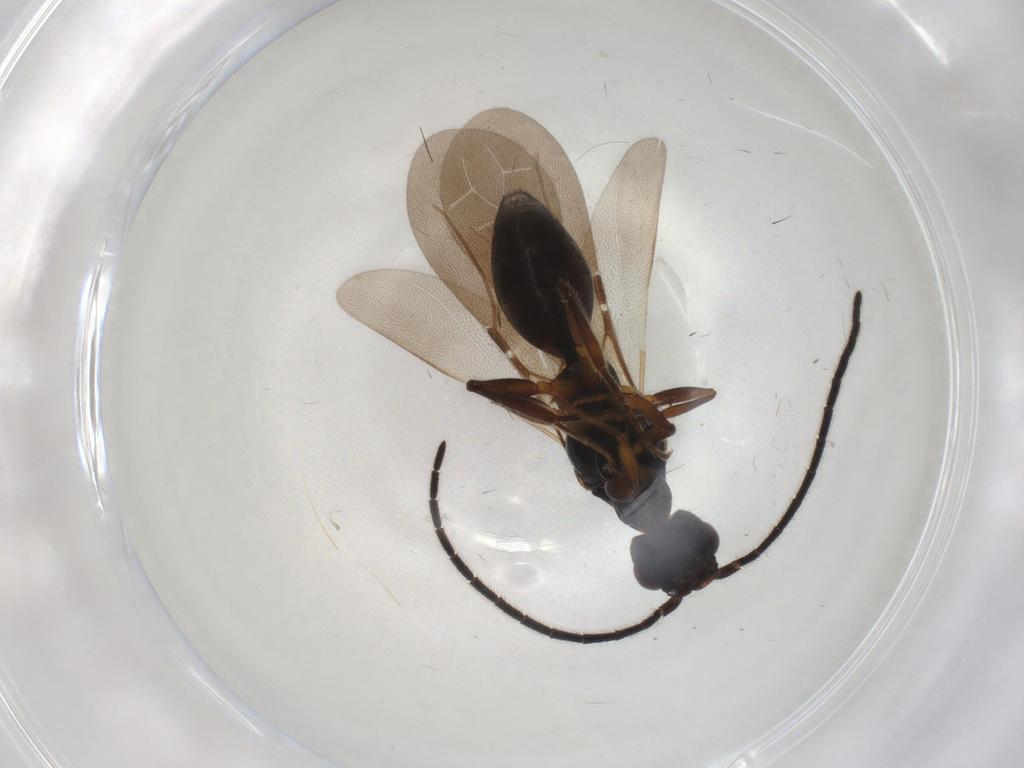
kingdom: Animalia
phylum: Arthropoda
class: Insecta
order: Hymenoptera
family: Bethylidae
